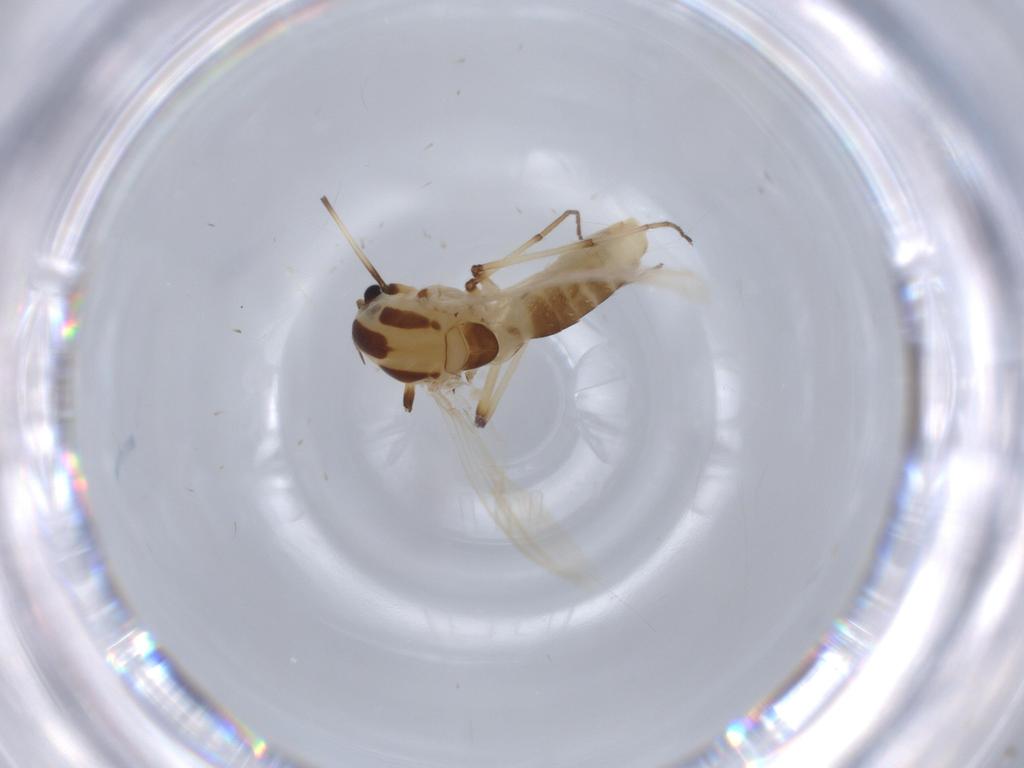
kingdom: Animalia
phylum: Arthropoda
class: Insecta
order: Diptera
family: Chironomidae
